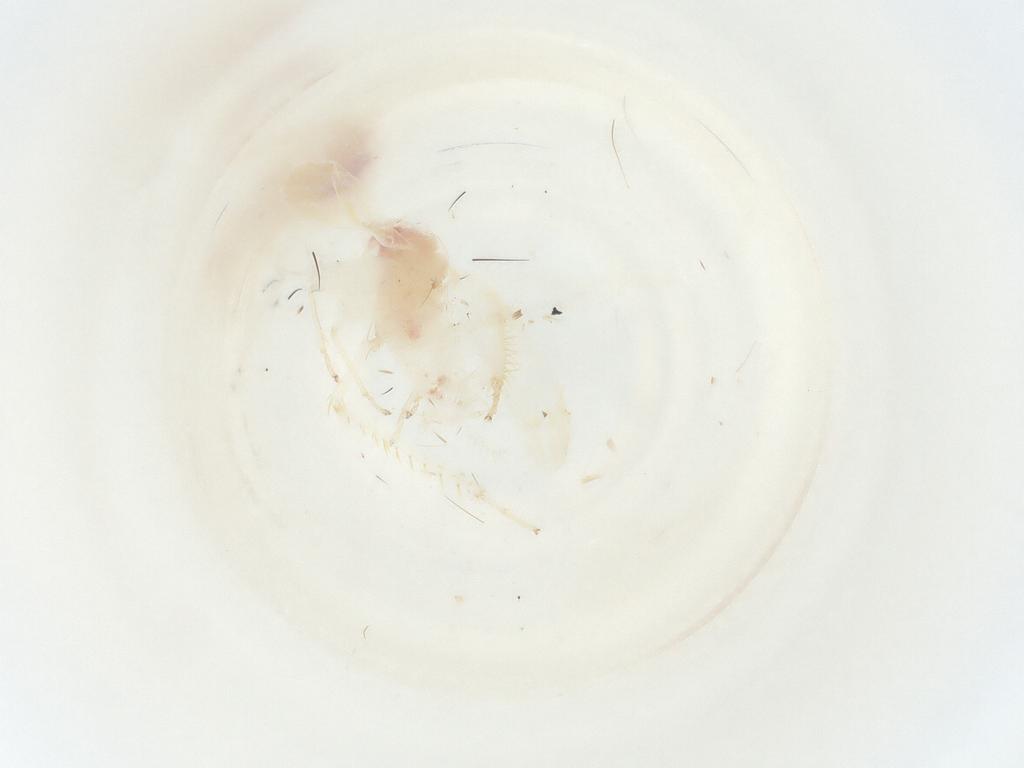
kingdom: Animalia
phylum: Arthropoda
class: Insecta
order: Hemiptera
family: Cicadellidae
